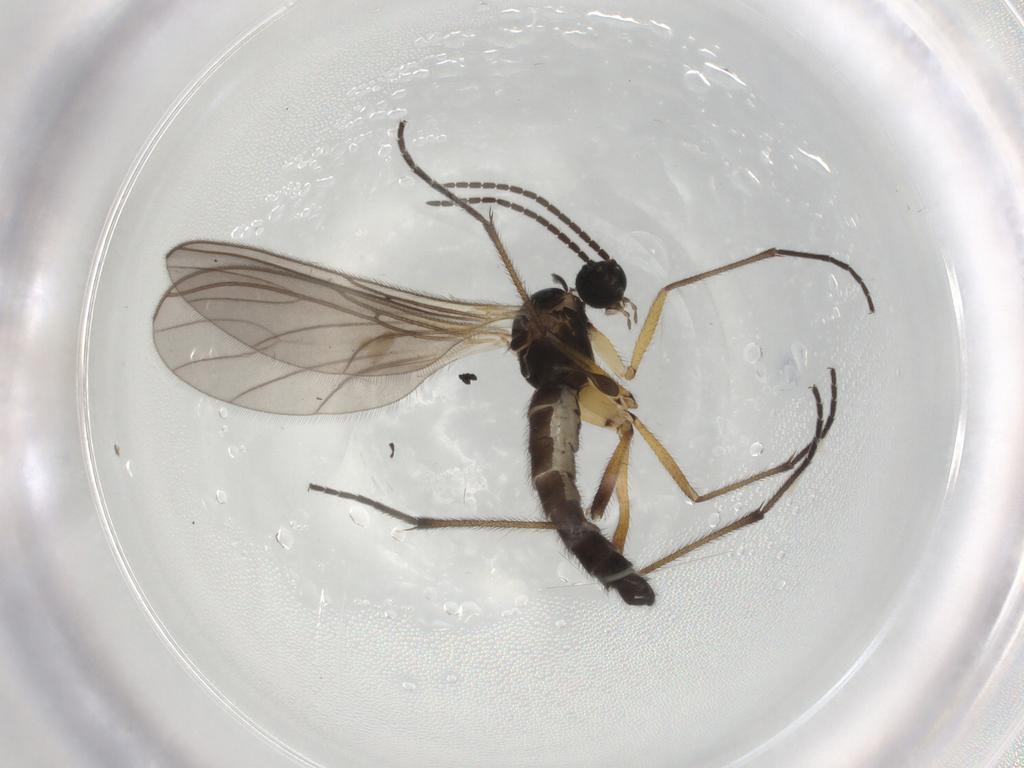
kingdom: Animalia
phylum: Arthropoda
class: Insecta
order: Diptera
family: Sciaridae
